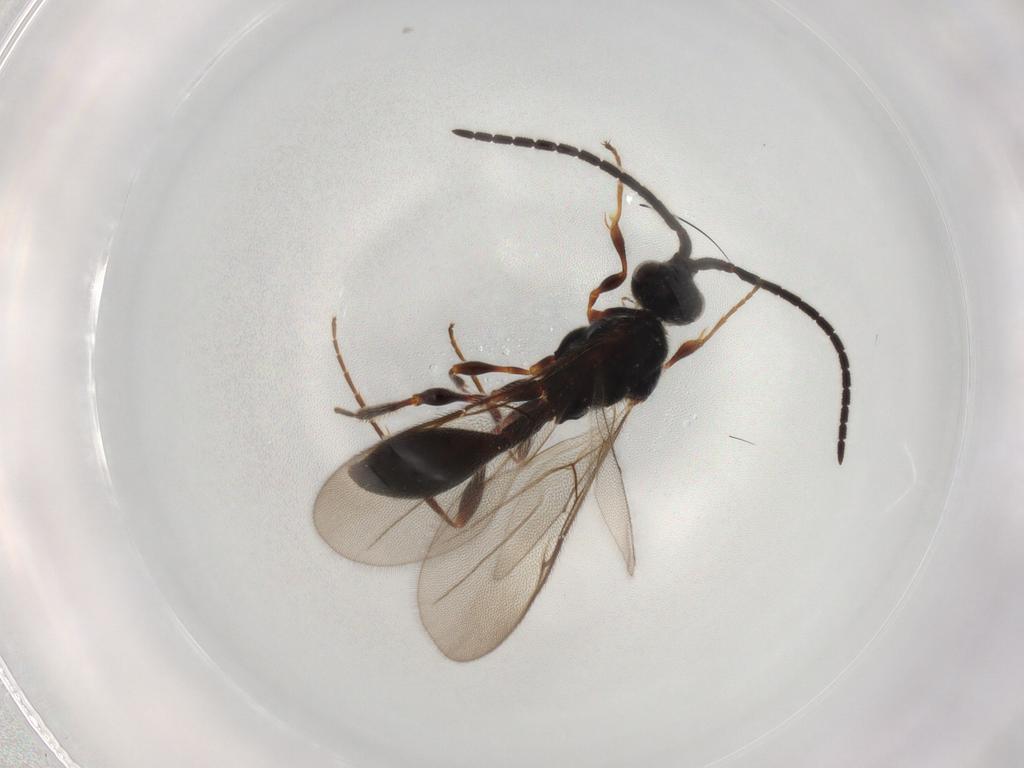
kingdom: Animalia
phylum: Arthropoda
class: Insecta
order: Hymenoptera
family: Diapriidae
